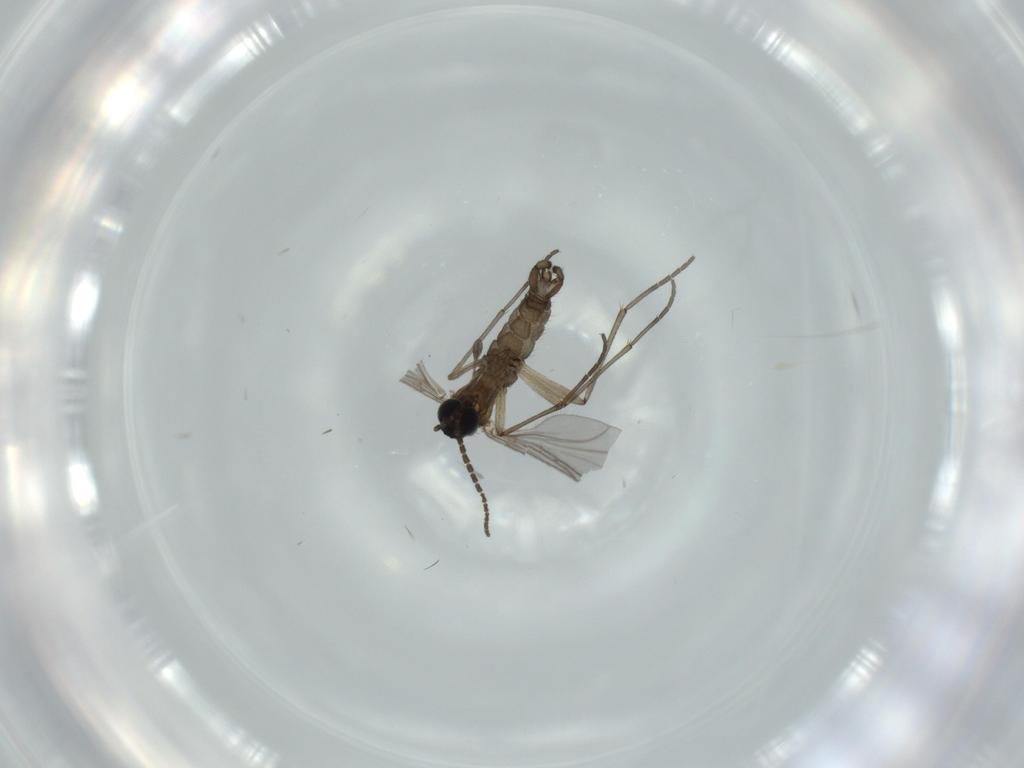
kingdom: Animalia
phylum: Arthropoda
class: Insecta
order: Diptera
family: Sciaridae
